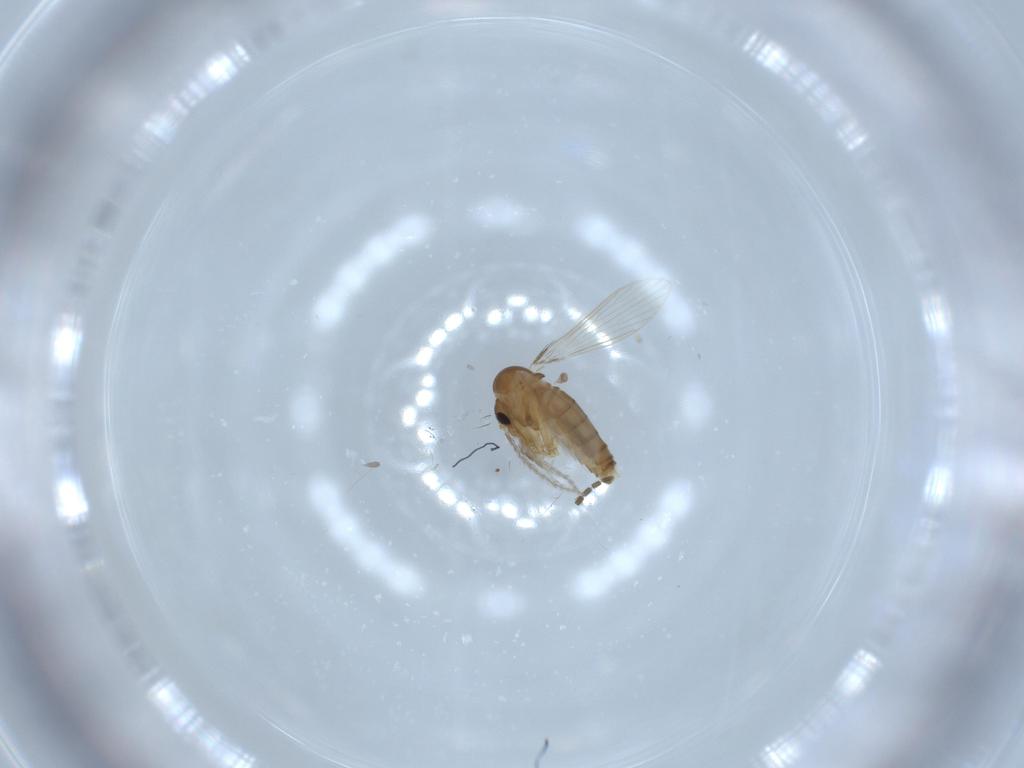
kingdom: Animalia
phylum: Arthropoda
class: Insecta
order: Diptera
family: Psychodidae
